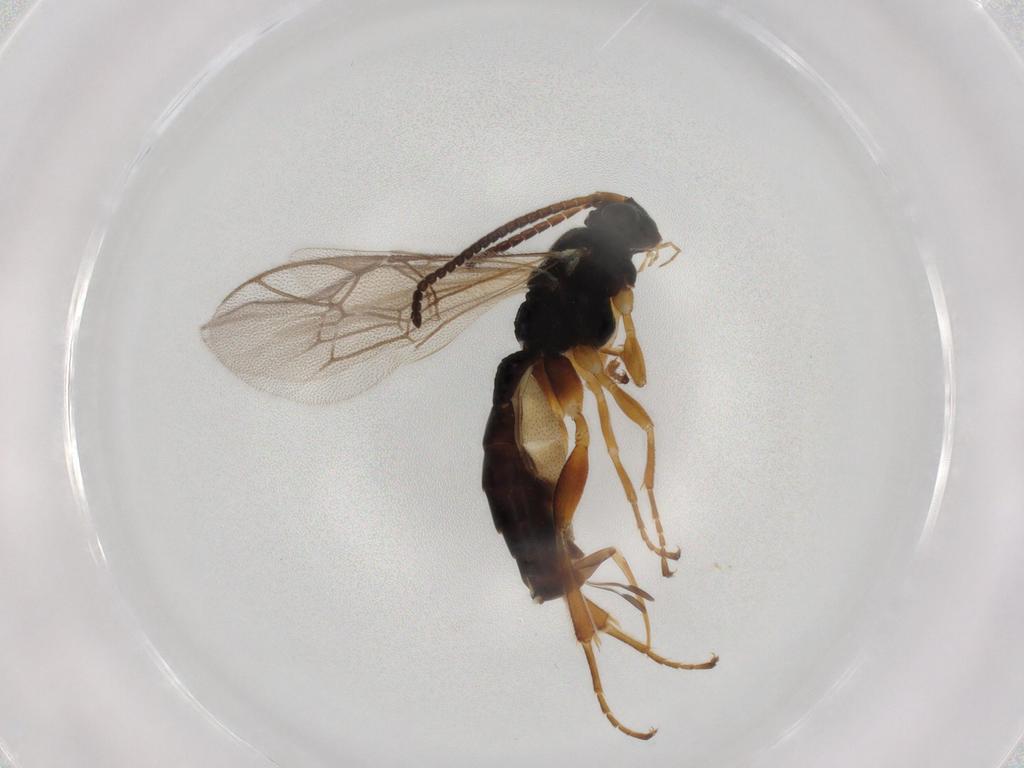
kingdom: Animalia
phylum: Arthropoda
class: Insecta
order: Hymenoptera
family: Ichneumonidae
